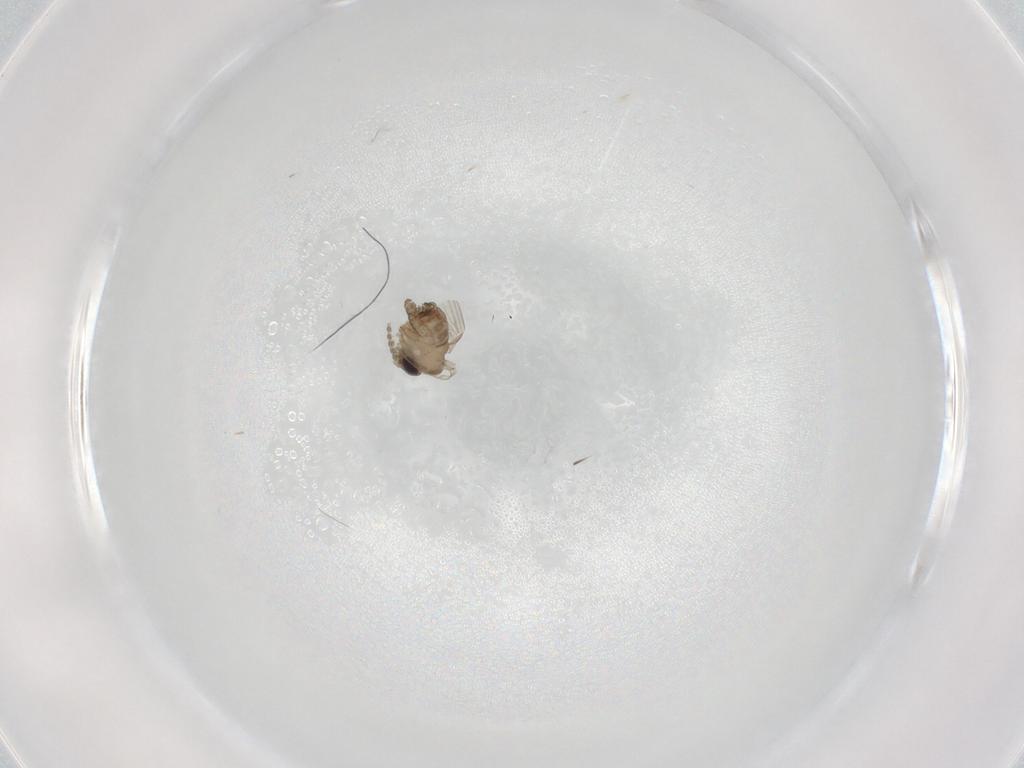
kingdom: Animalia
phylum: Arthropoda
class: Insecta
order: Diptera
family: Psychodidae
